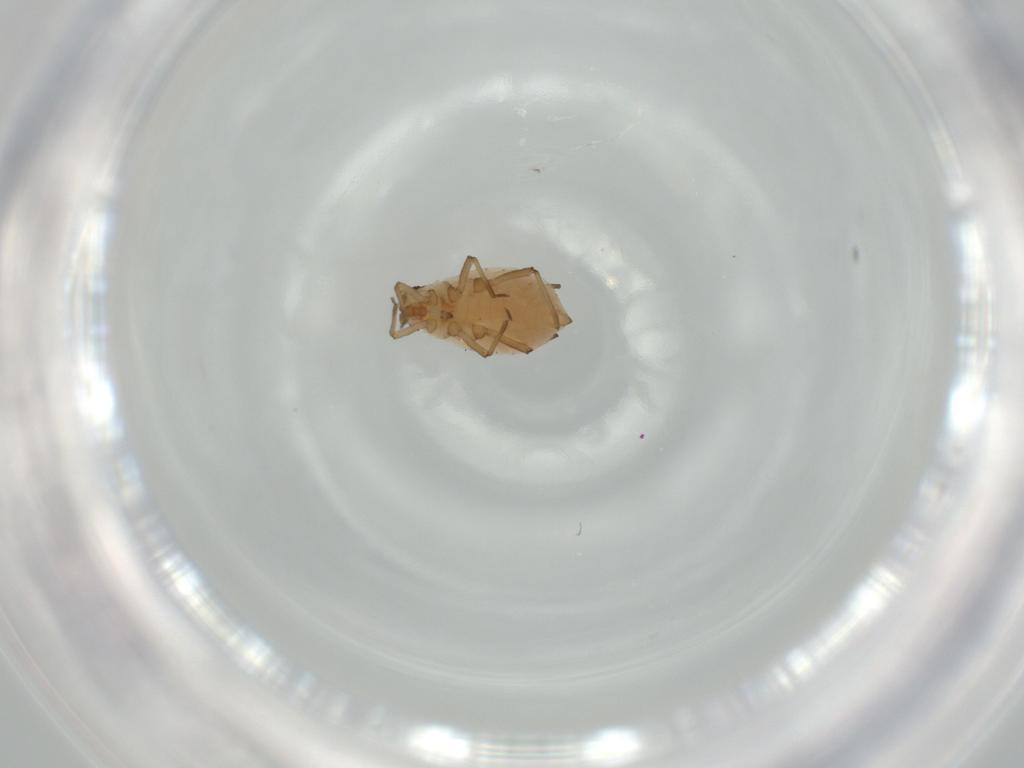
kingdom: Animalia
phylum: Arthropoda
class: Insecta
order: Hemiptera
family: Aphididae
